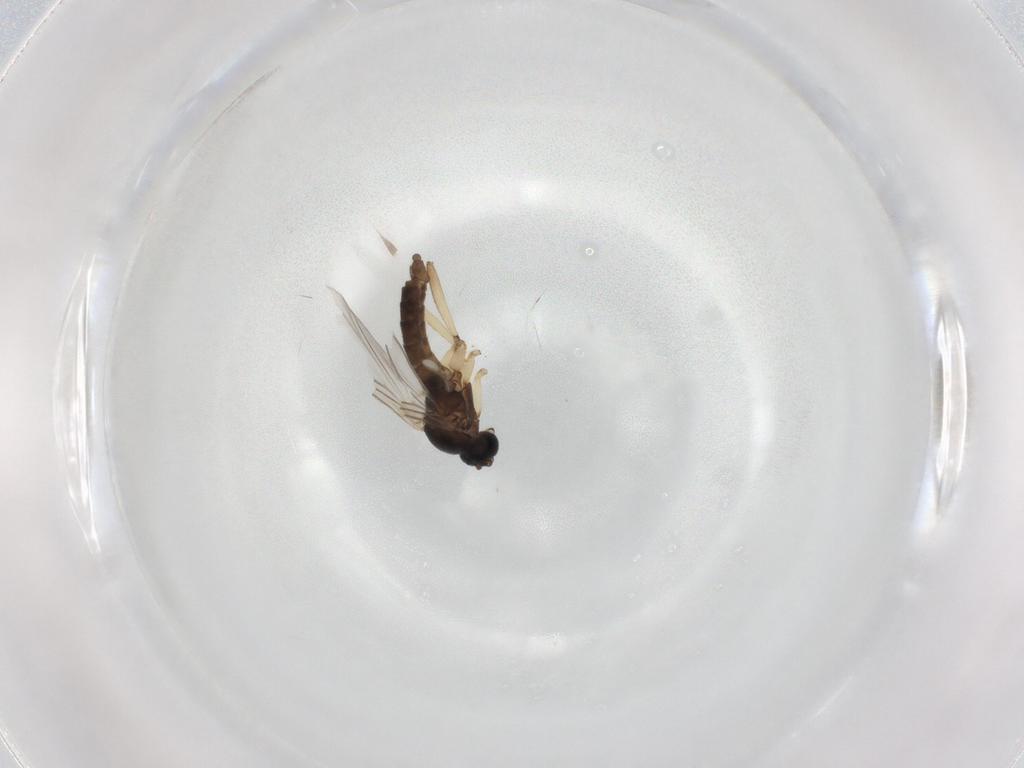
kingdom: Animalia
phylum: Arthropoda
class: Insecta
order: Diptera
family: Sciaridae
